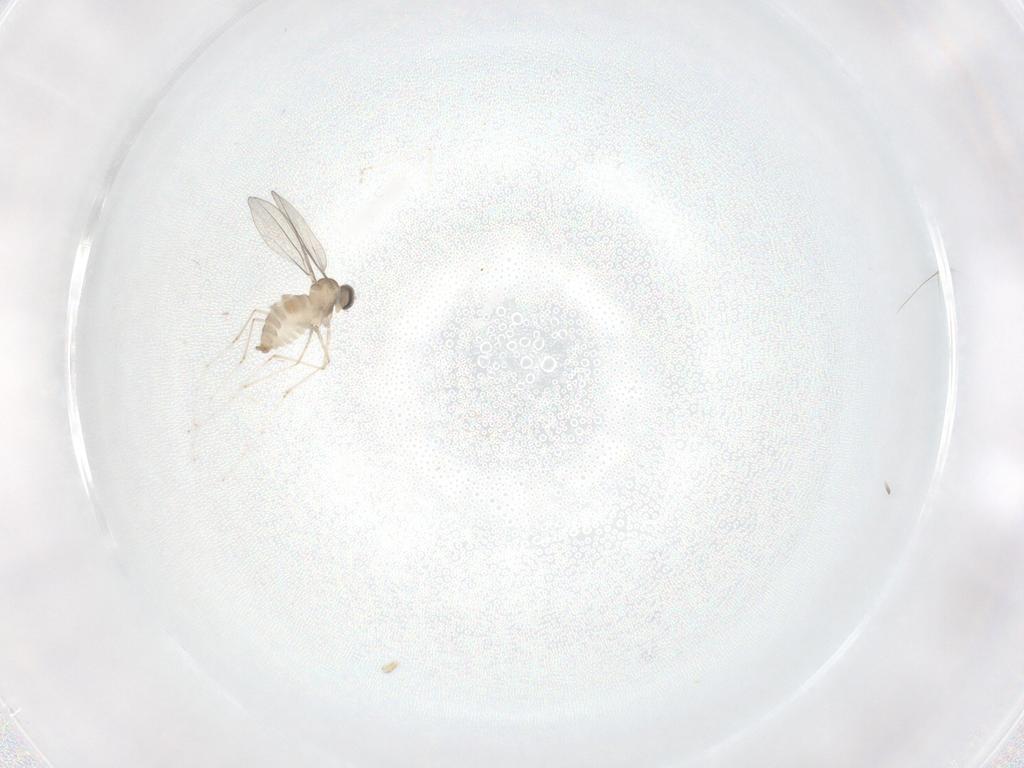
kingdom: Animalia
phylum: Arthropoda
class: Insecta
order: Diptera
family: Cecidomyiidae
